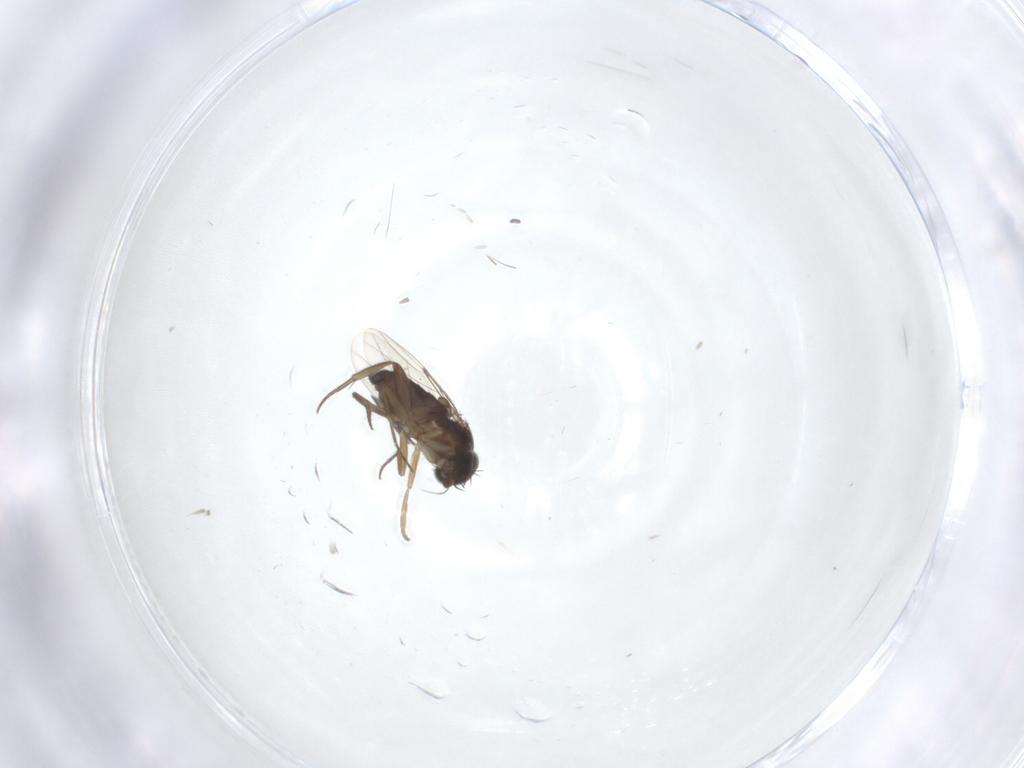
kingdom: Animalia
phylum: Arthropoda
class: Insecta
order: Diptera
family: Phoridae
